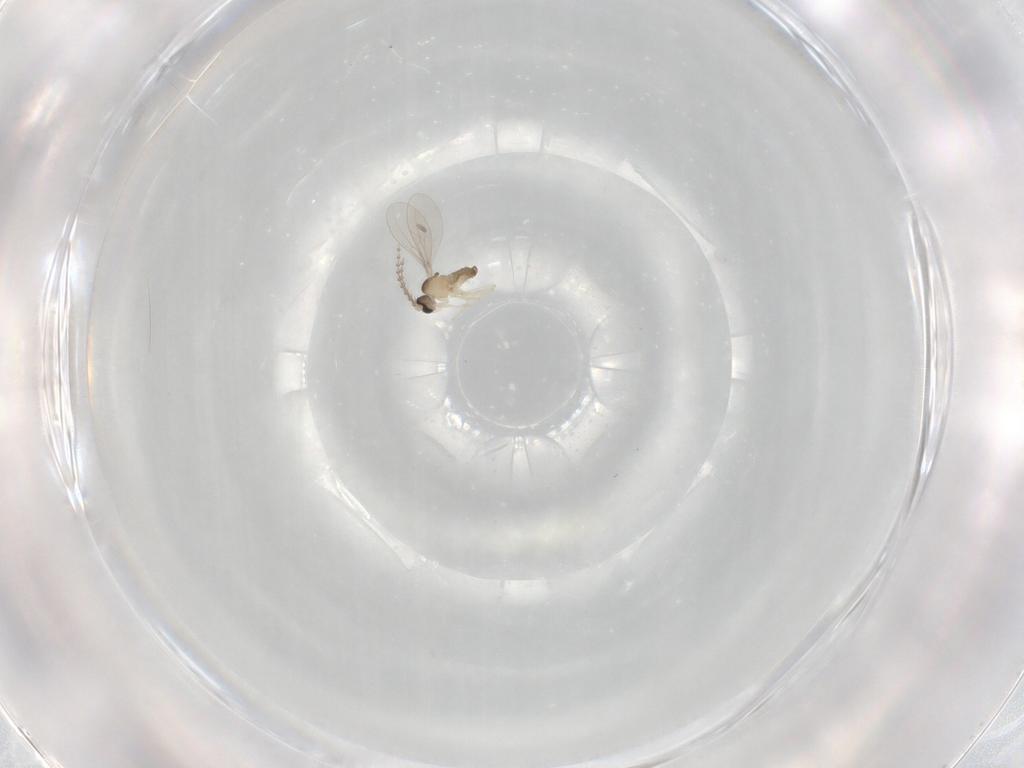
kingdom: Animalia
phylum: Arthropoda
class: Insecta
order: Diptera
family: Cecidomyiidae
